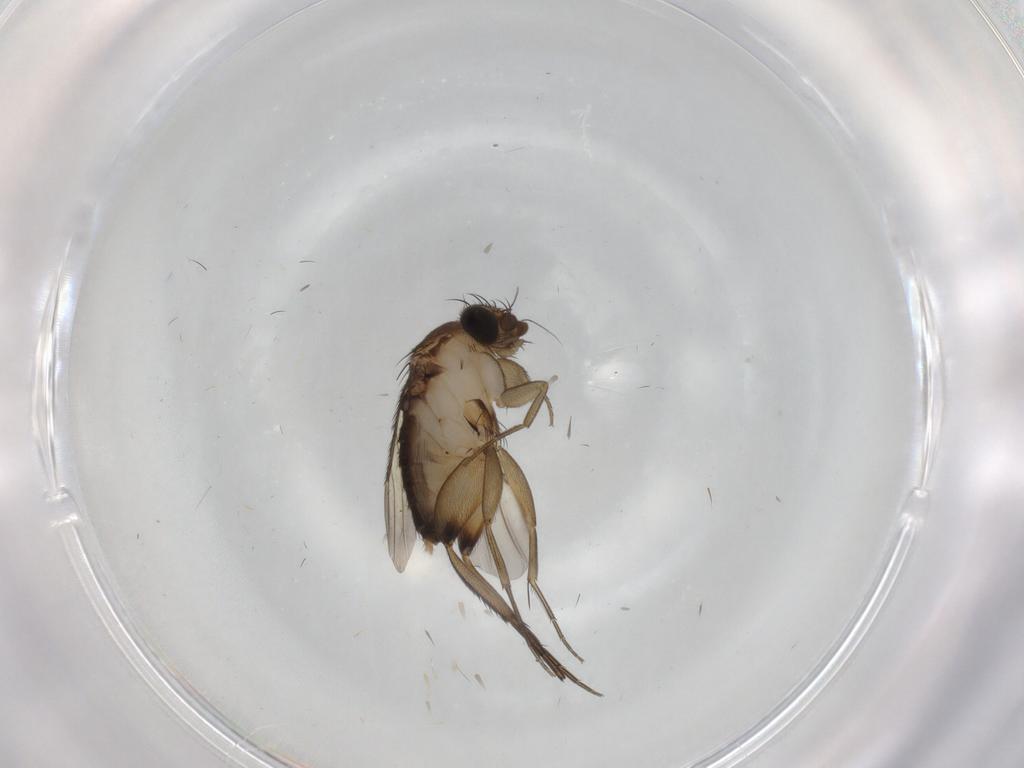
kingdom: Animalia
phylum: Arthropoda
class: Insecta
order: Diptera
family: Phoridae
